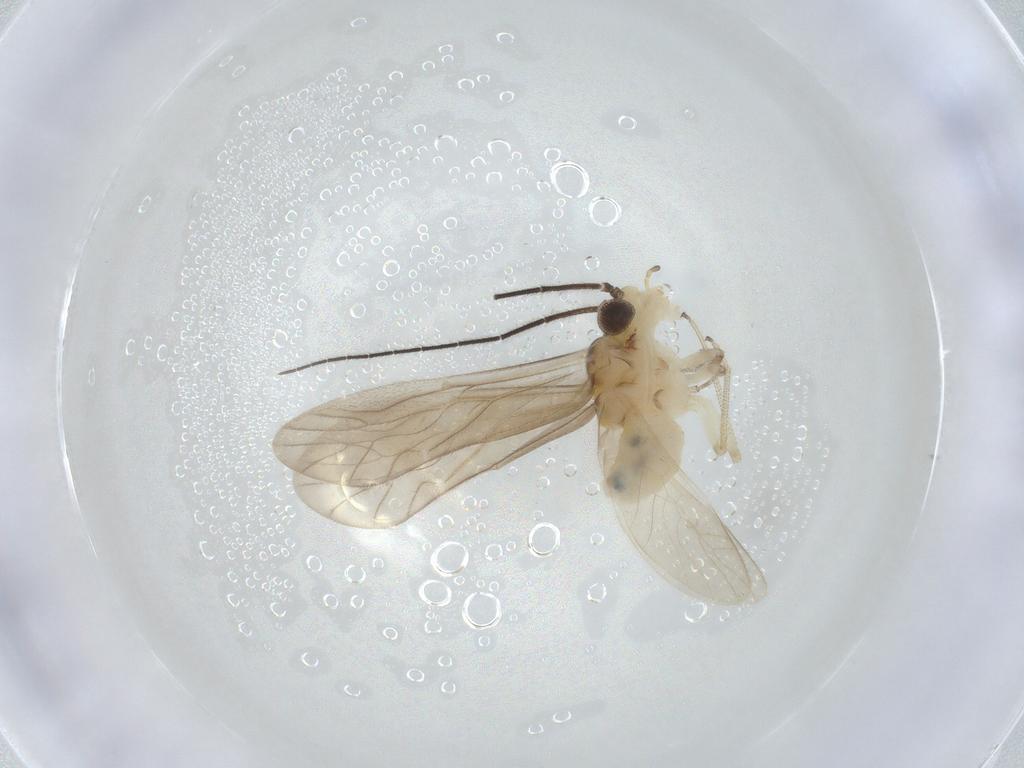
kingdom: Animalia
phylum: Arthropoda
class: Insecta
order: Psocodea
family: Caeciliusidae
